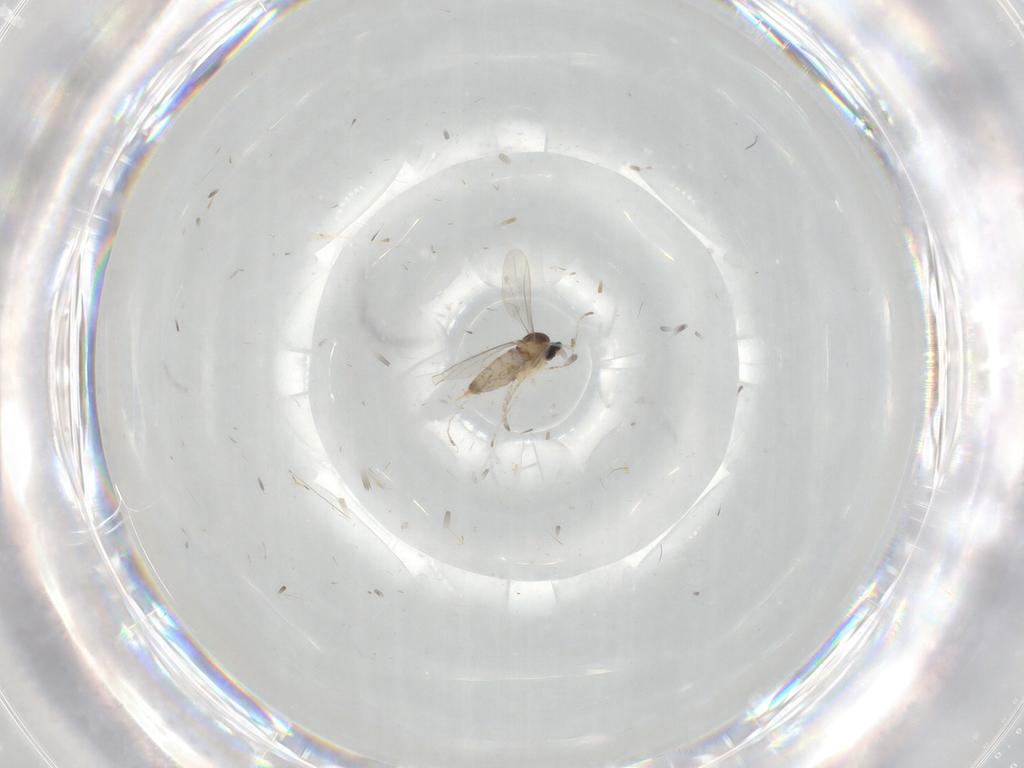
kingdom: Animalia
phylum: Arthropoda
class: Insecta
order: Diptera
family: Cecidomyiidae
